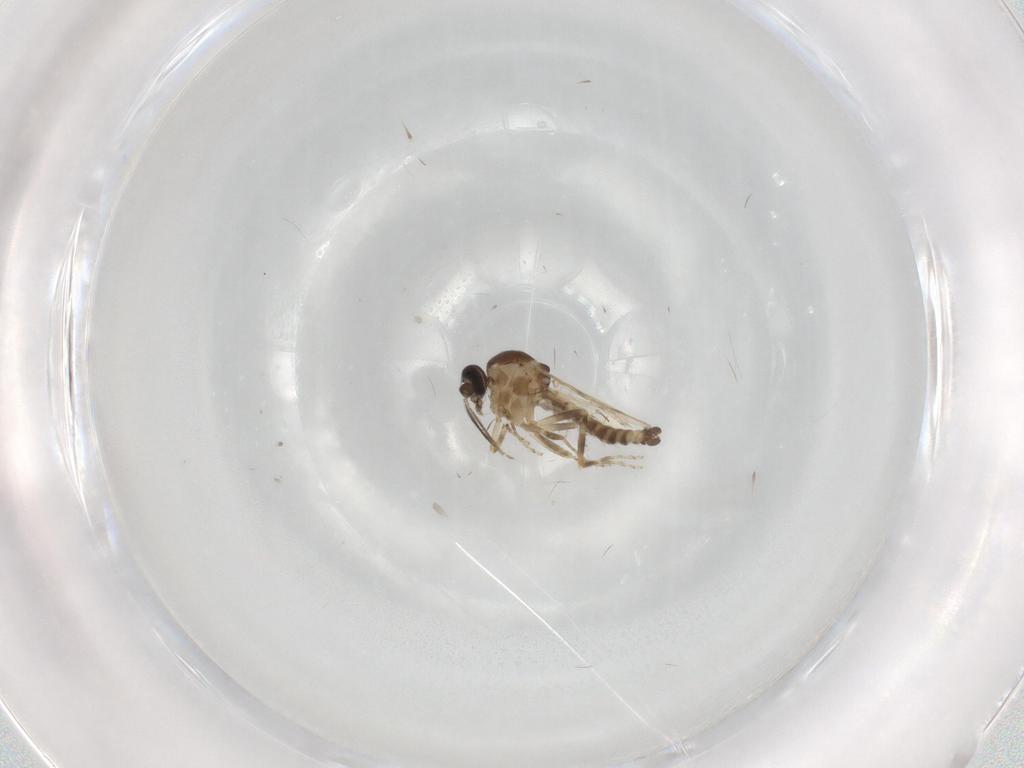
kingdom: Animalia
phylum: Arthropoda
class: Insecta
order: Diptera
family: Ceratopogonidae
